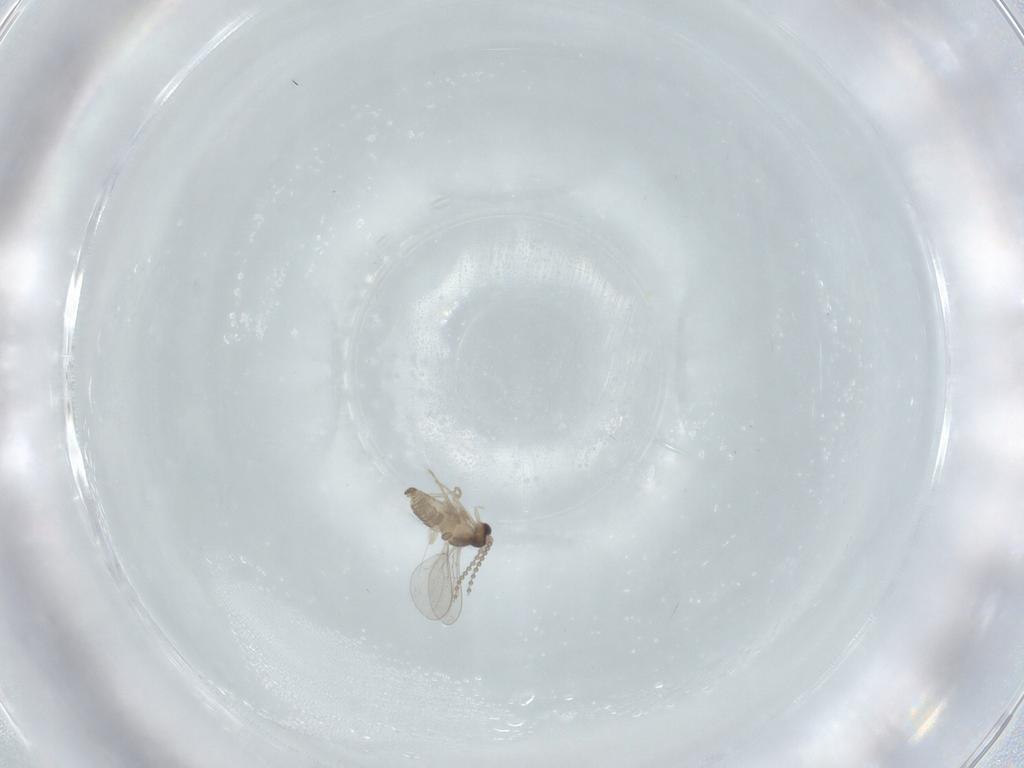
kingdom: Animalia
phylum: Arthropoda
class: Insecta
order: Diptera
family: Cecidomyiidae
